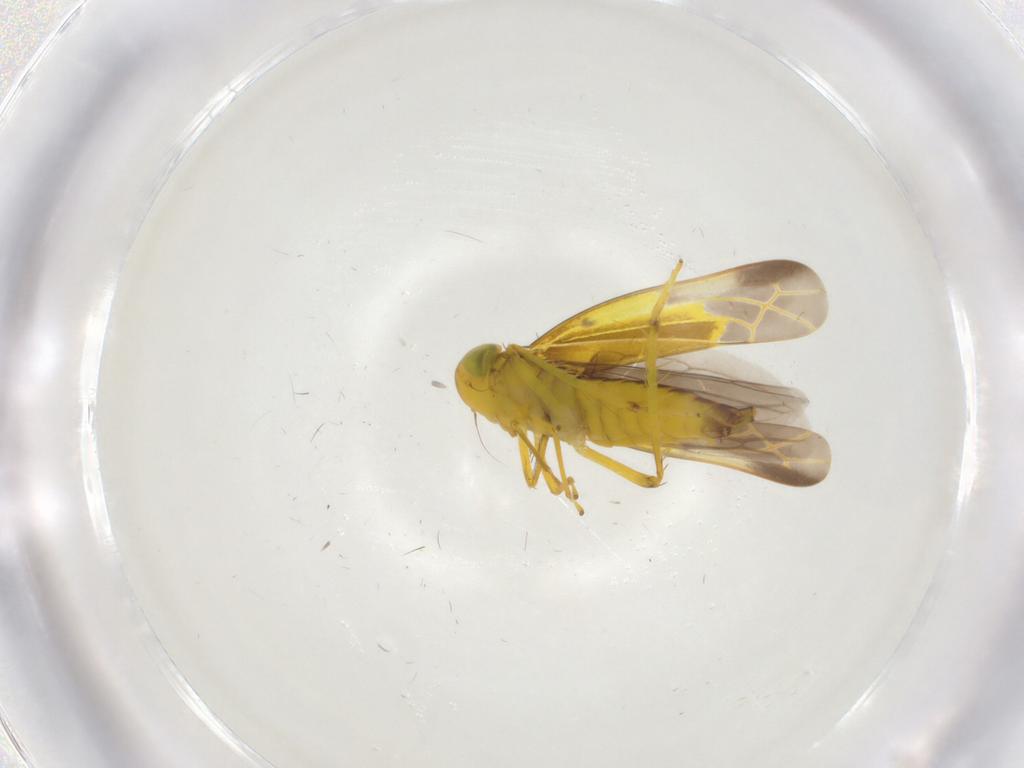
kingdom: Animalia
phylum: Arthropoda
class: Insecta
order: Hemiptera
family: Cicadellidae
